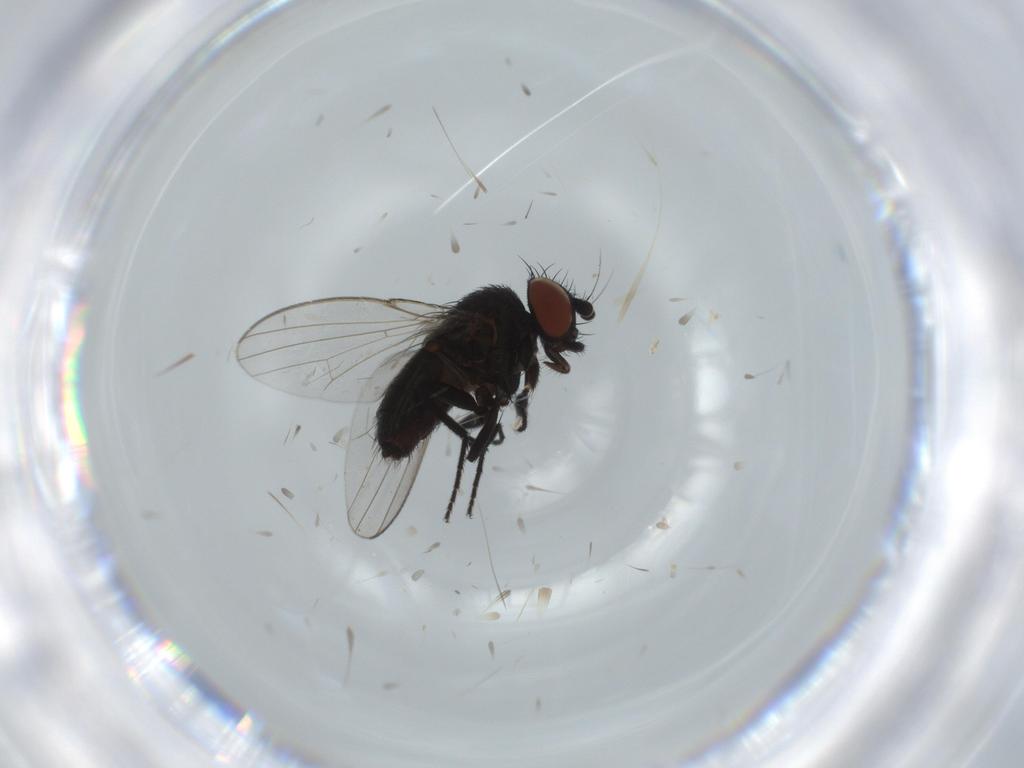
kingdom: Animalia
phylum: Arthropoda
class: Insecta
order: Diptera
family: Milichiidae
